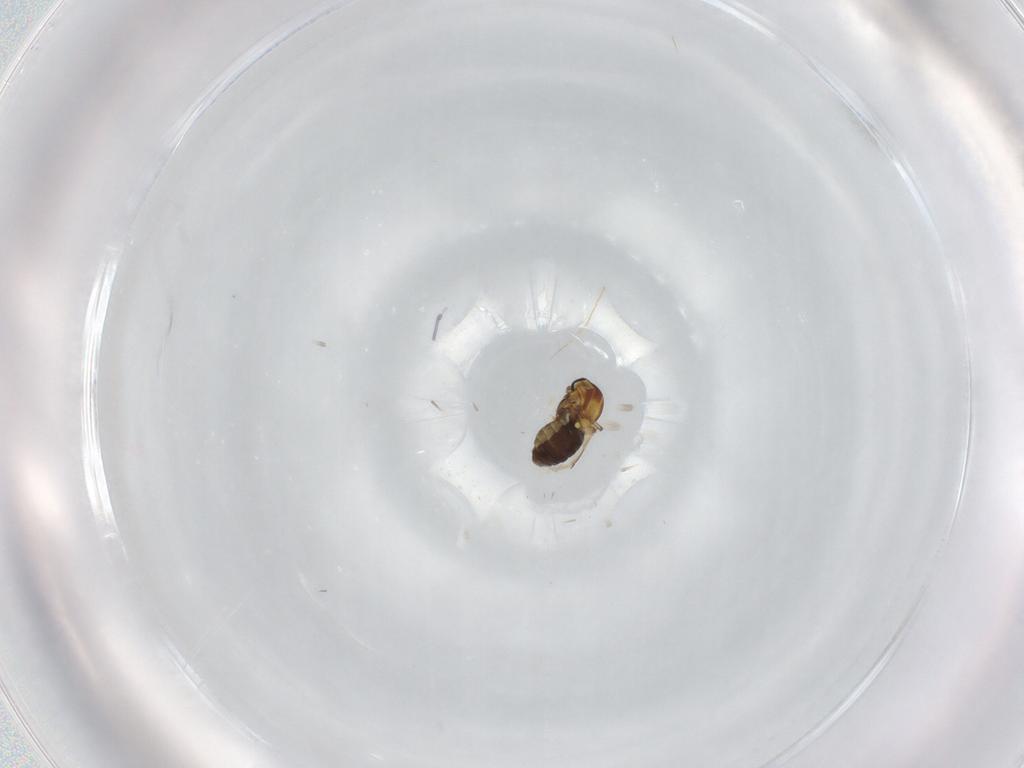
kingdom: Animalia
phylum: Arthropoda
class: Insecta
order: Diptera
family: Ceratopogonidae
